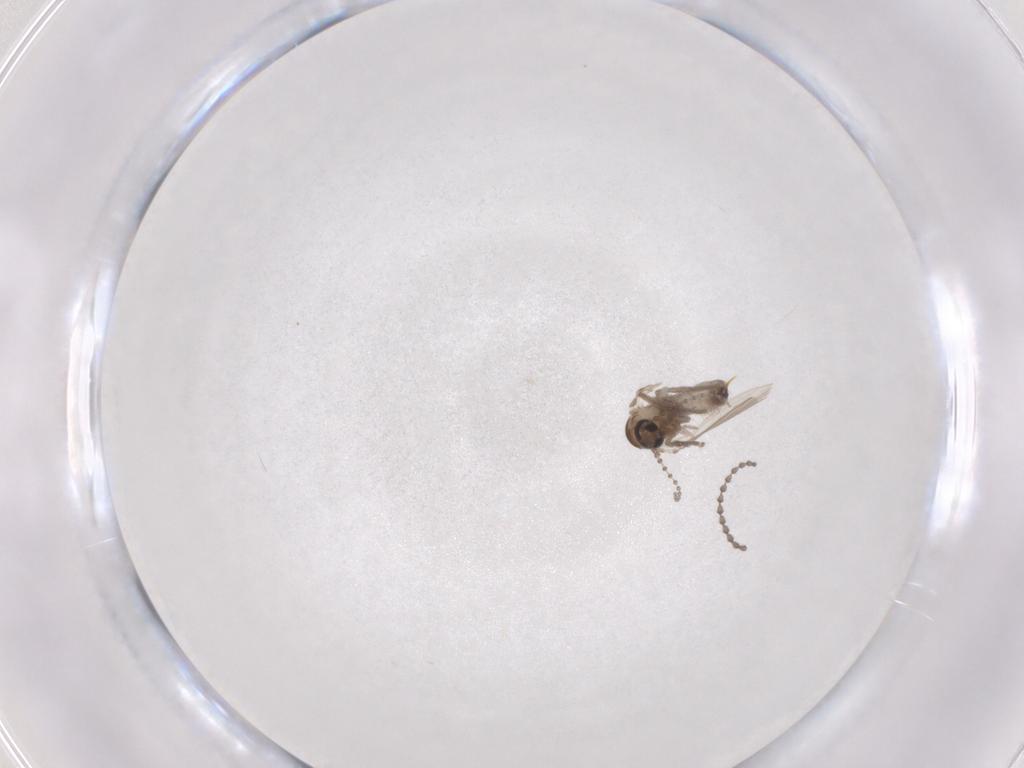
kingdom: Animalia
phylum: Arthropoda
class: Insecta
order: Diptera
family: Psychodidae
